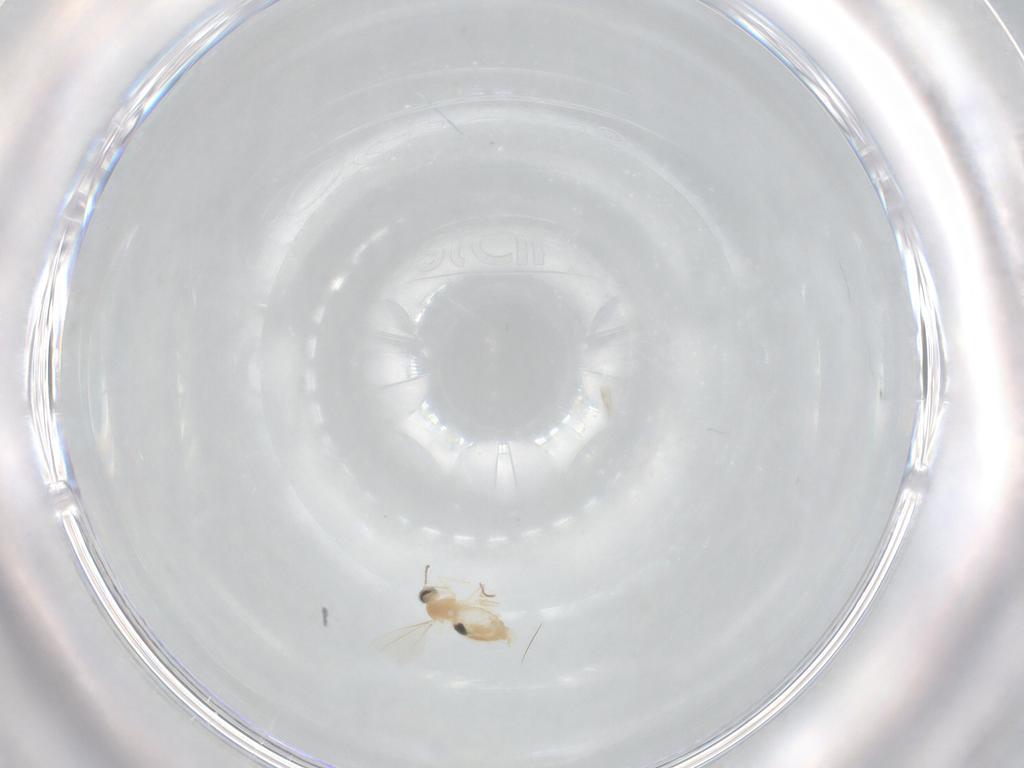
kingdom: Animalia
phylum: Arthropoda
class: Insecta
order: Diptera
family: Cecidomyiidae
